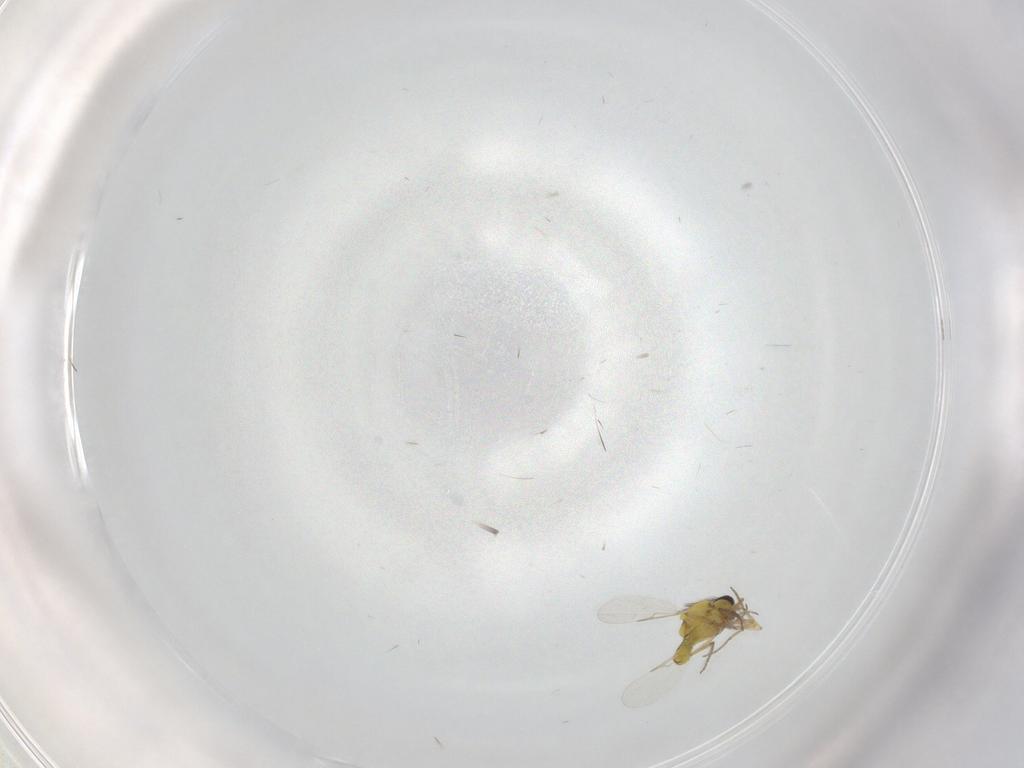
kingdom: Animalia
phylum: Arthropoda
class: Insecta
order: Diptera
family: Ceratopogonidae
